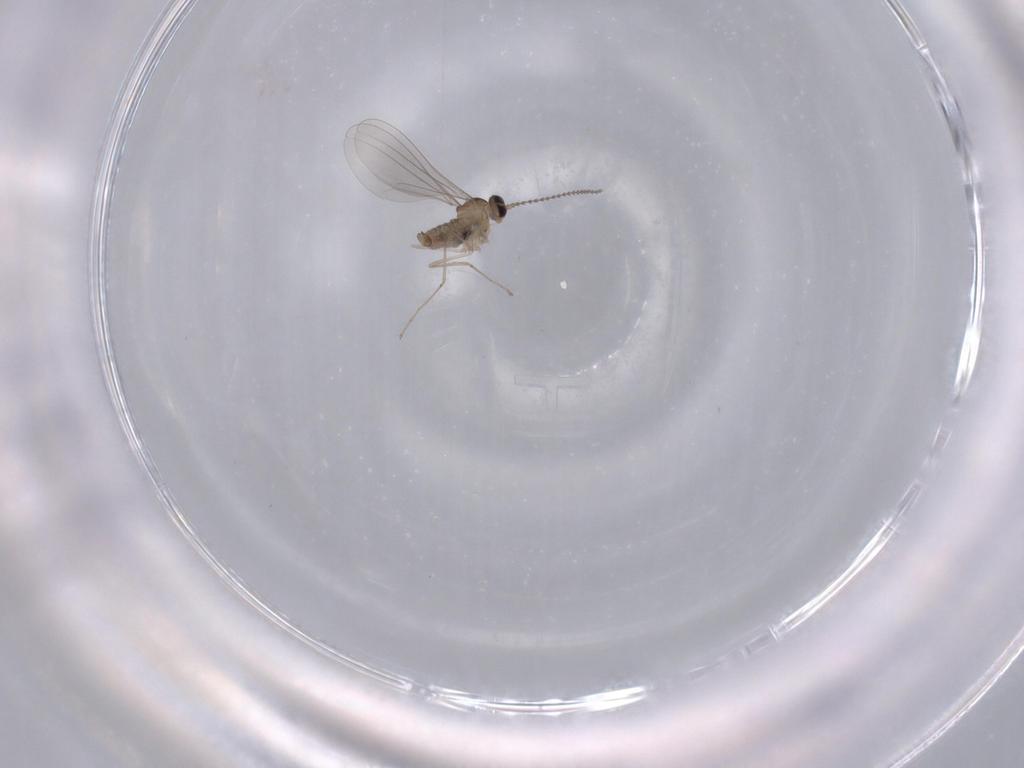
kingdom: Animalia
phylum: Arthropoda
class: Insecta
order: Diptera
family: Cecidomyiidae
